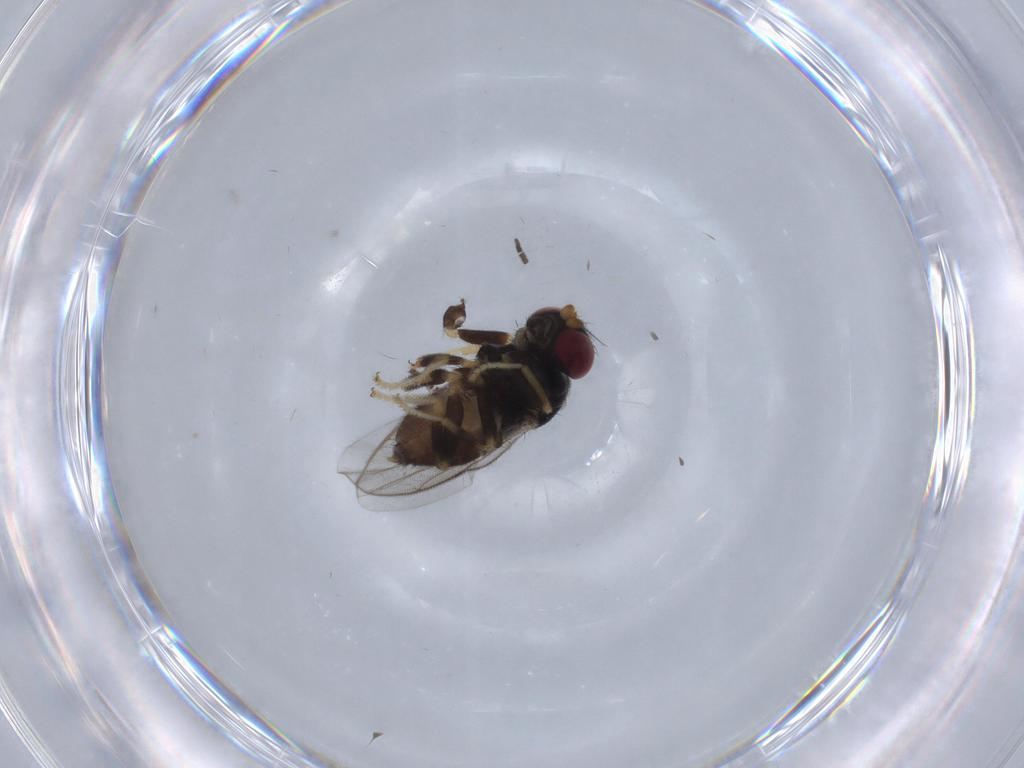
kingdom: Animalia
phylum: Arthropoda
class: Insecta
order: Diptera
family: Chloropidae
